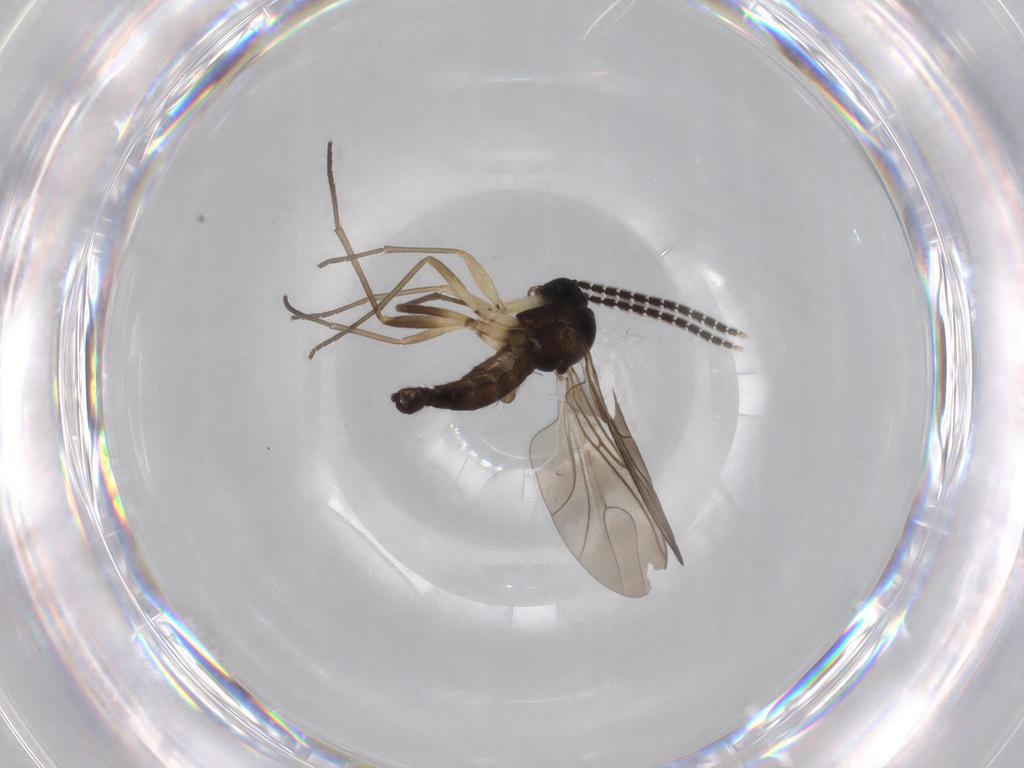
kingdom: Animalia
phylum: Arthropoda
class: Insecta
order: Diptera
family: Sciaridae
